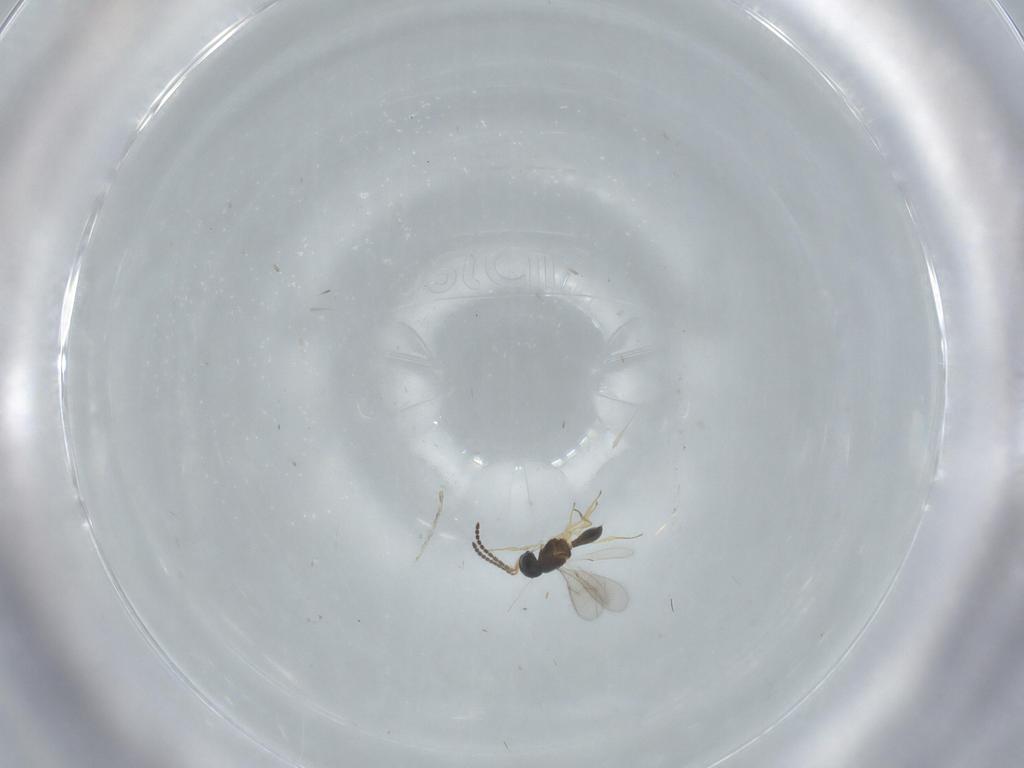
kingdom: Animalia
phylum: Arthropoda
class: Insecta
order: Hymenoptera
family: Scelionidae
